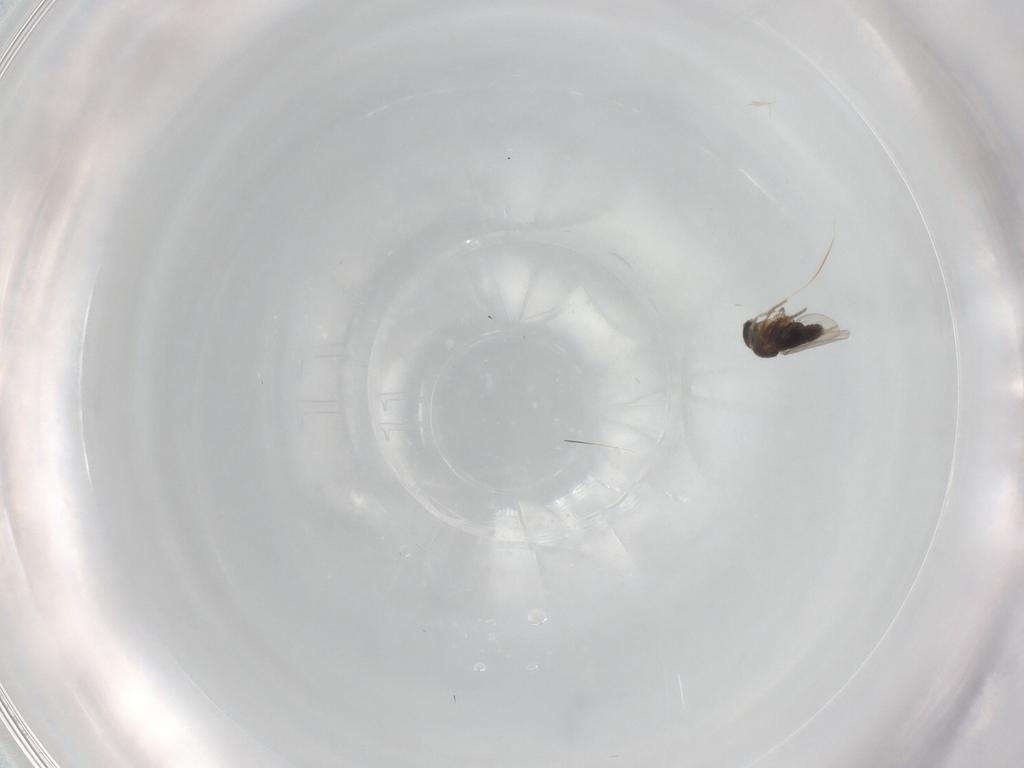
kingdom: Animalia
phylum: Arthropoda
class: Insecta
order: Diptera
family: Phoridae
